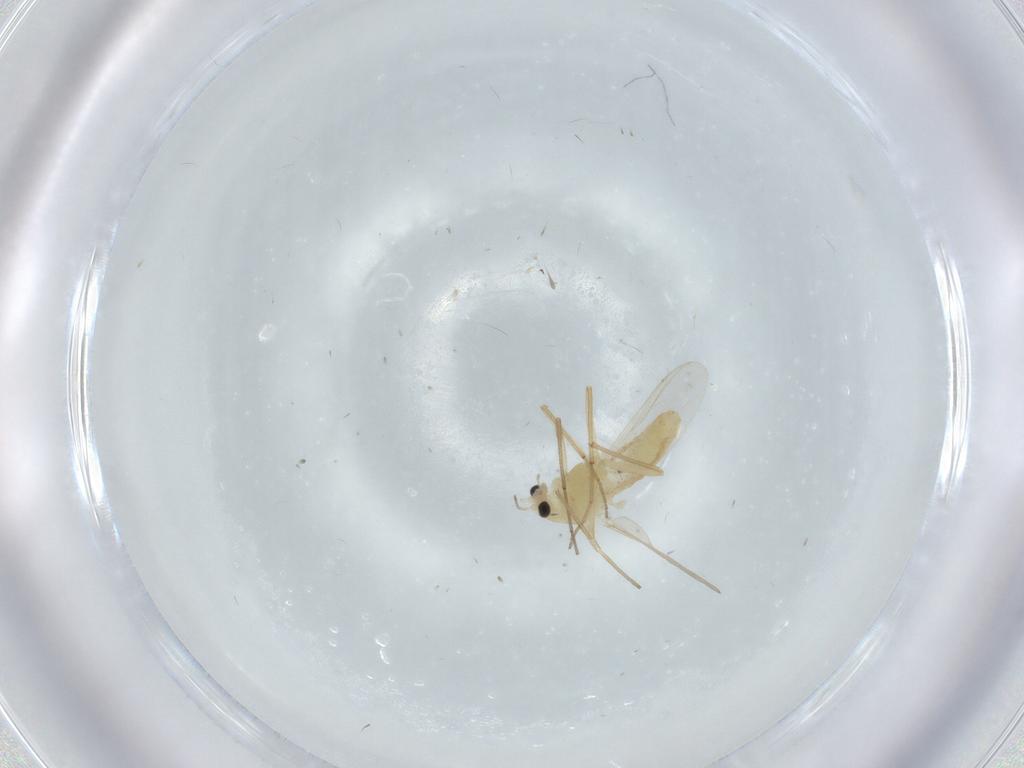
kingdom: Animalia
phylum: Arthropoda
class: Insecta
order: Diptera
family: Chironomidae
